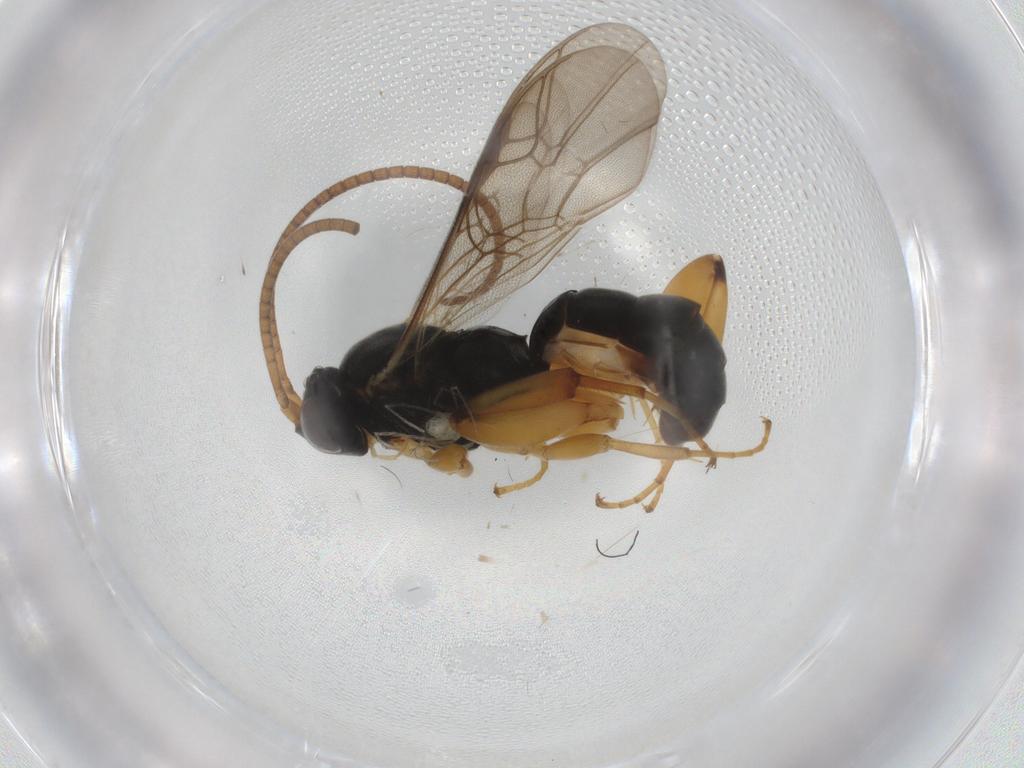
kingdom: Animalia
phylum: Arthropoda
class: Insecta
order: Hymenoptera
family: Ichneumonidae
